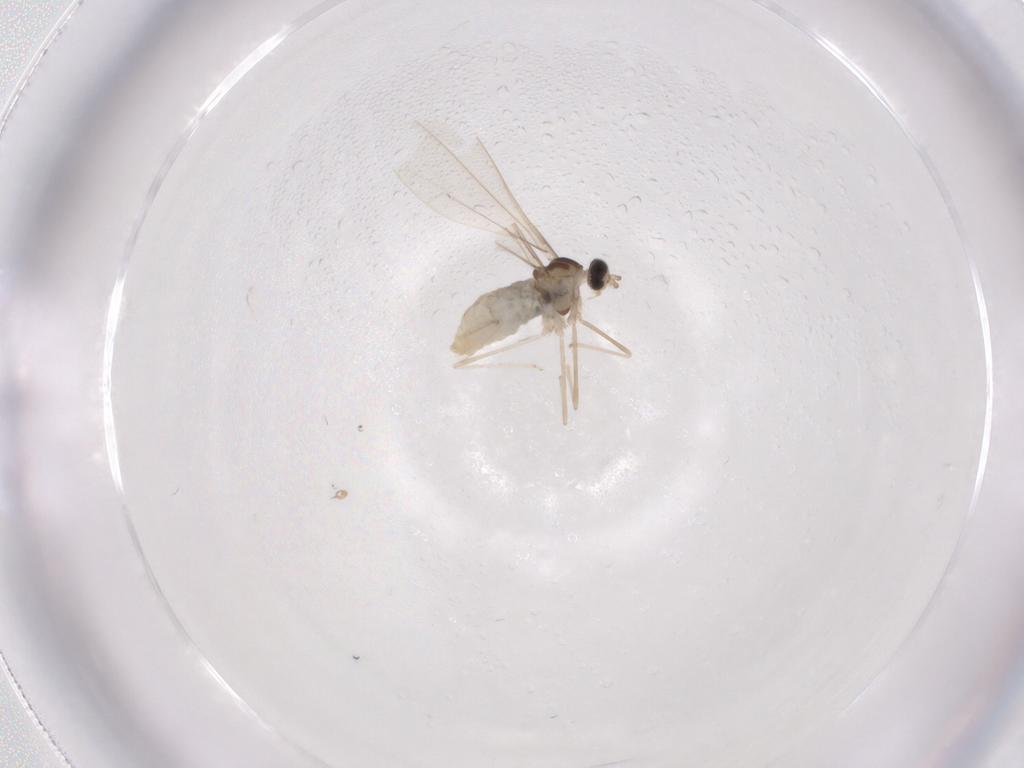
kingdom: Animalia
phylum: Arthropoda
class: Insecta
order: Diptera
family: Cecidomyiidae
